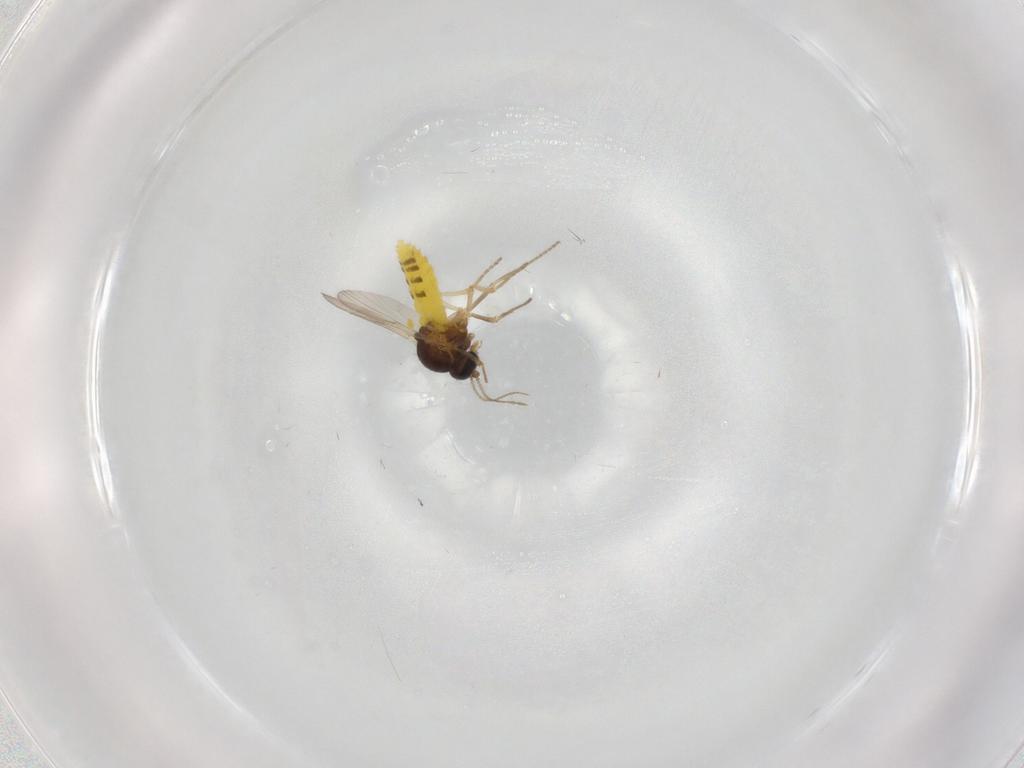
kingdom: Animalia
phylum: Arthropoda
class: Insecta
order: Diptera
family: Ceratopogonidae
